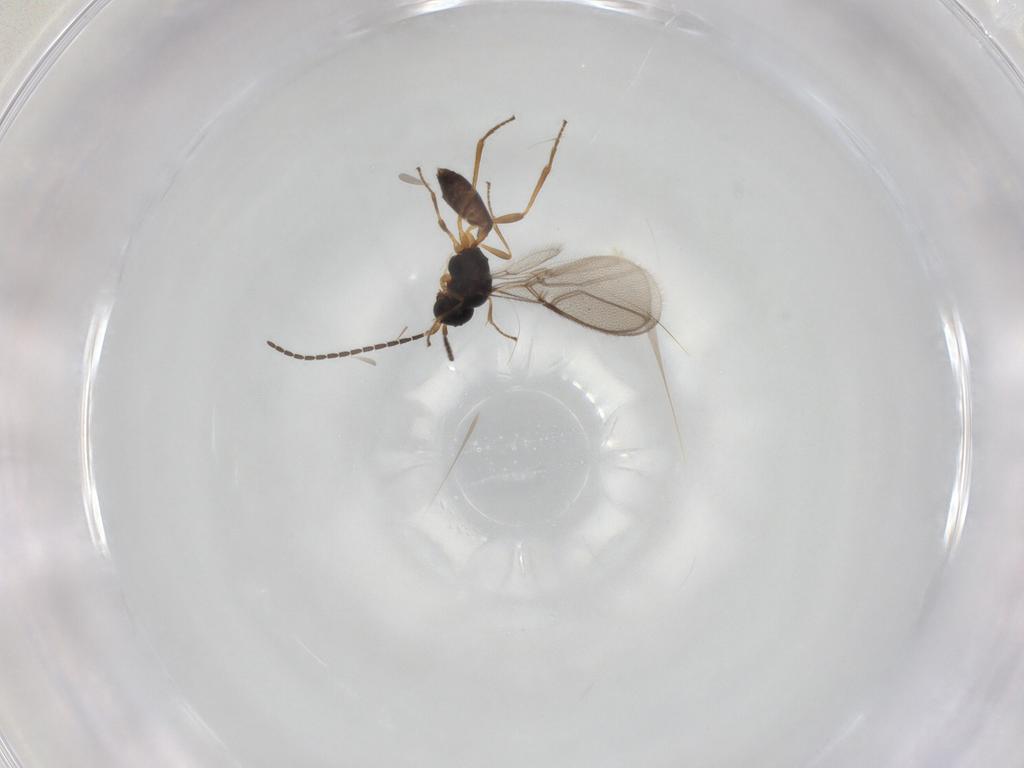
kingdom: Animalia
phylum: Arthropoda
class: Insecta
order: Hymenoptera
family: Braconidae
